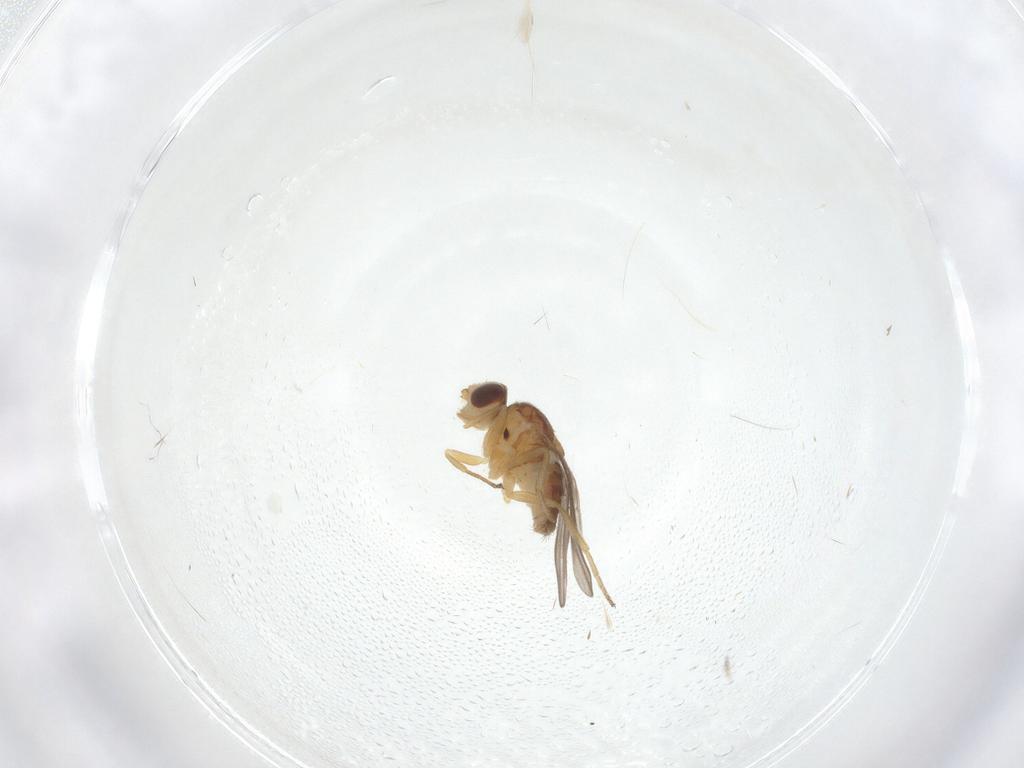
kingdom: Animalia
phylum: Arthropoda
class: Insecta
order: Diptera
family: Chloropidae
